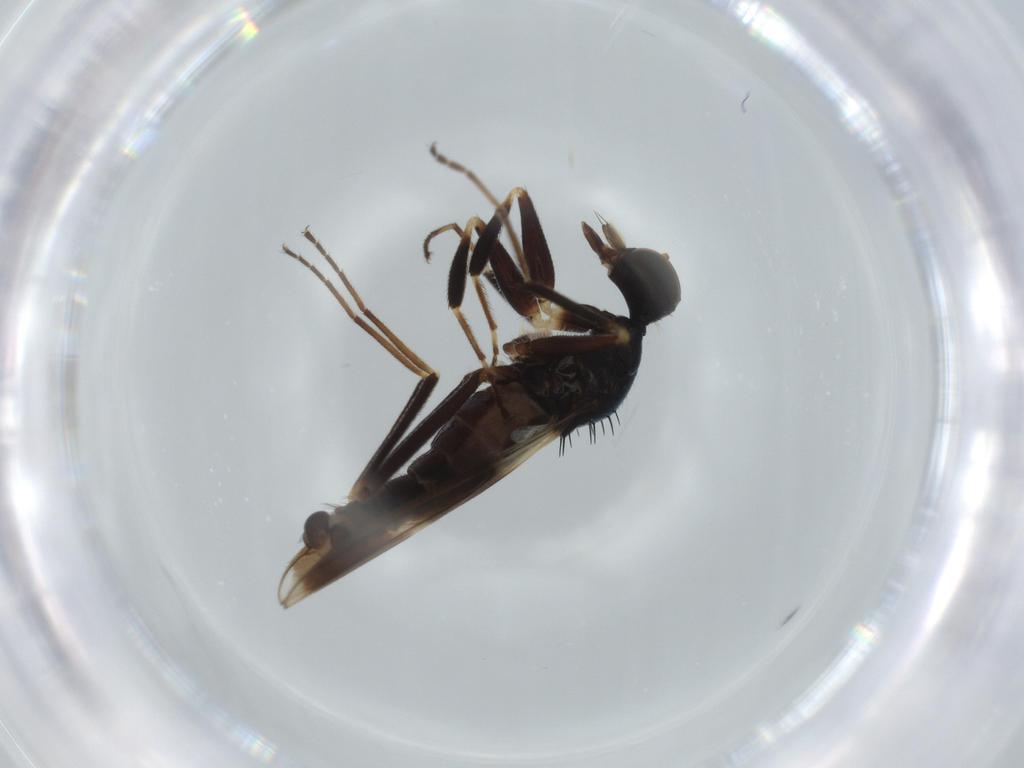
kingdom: Animalia
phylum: Arthropoda
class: Insecta
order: Diptera
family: Hybotidae
